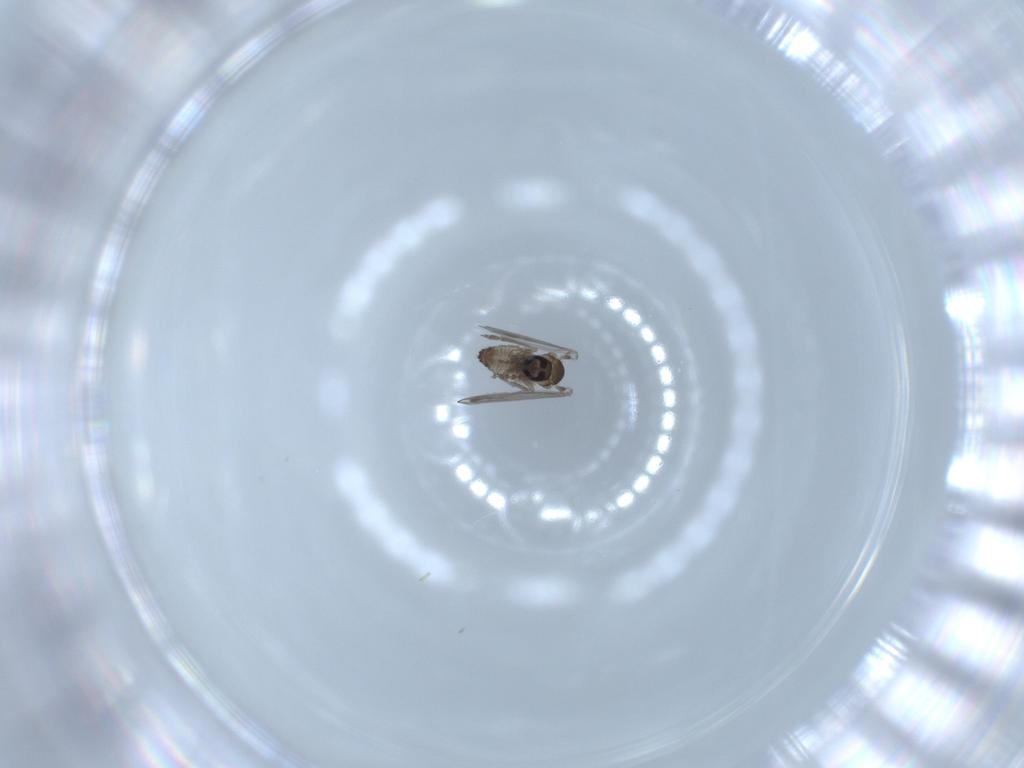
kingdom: Animalia
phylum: Arthropoda
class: Insecta
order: Diptera
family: Psychodidae
